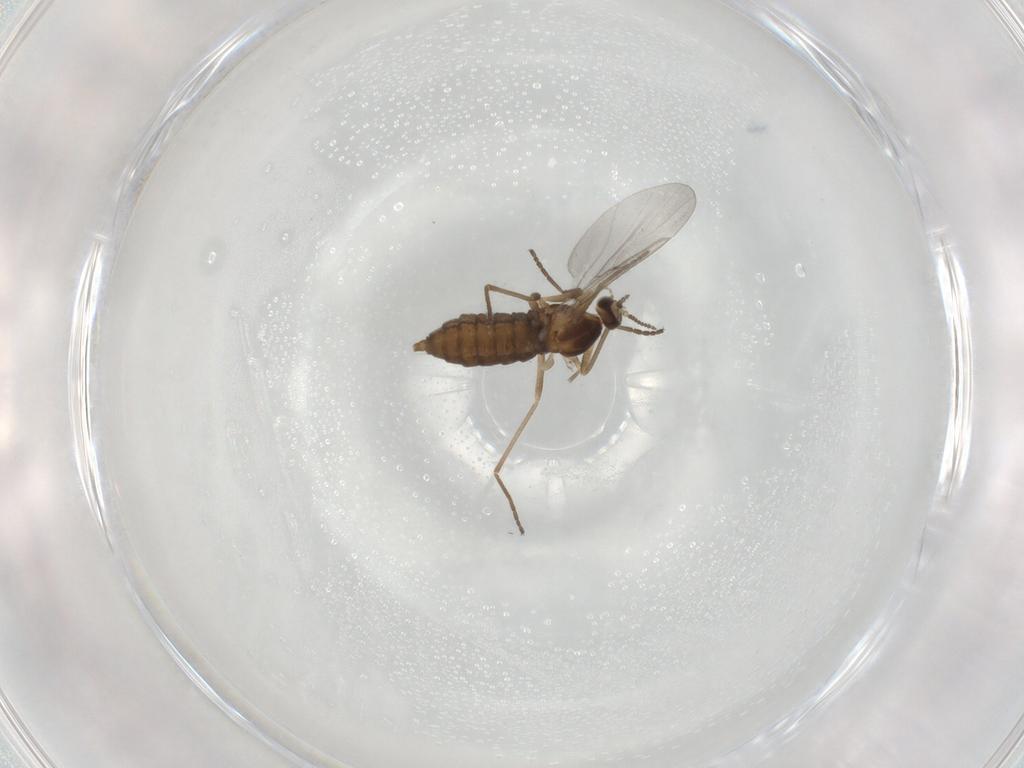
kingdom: Animalia
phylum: Arthropoda
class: Insecta
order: Diptera
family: Cecidomyiidae
